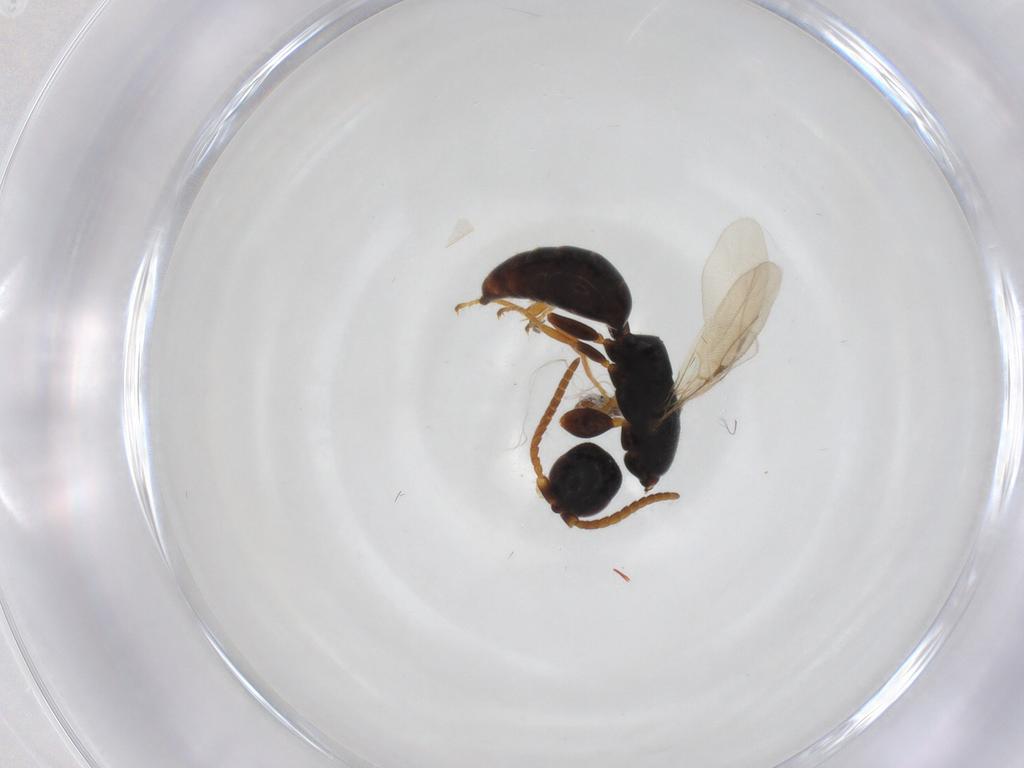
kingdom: Animalia
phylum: Arthropoda
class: Insecta
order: Hymenoptera
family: Bethylidae
